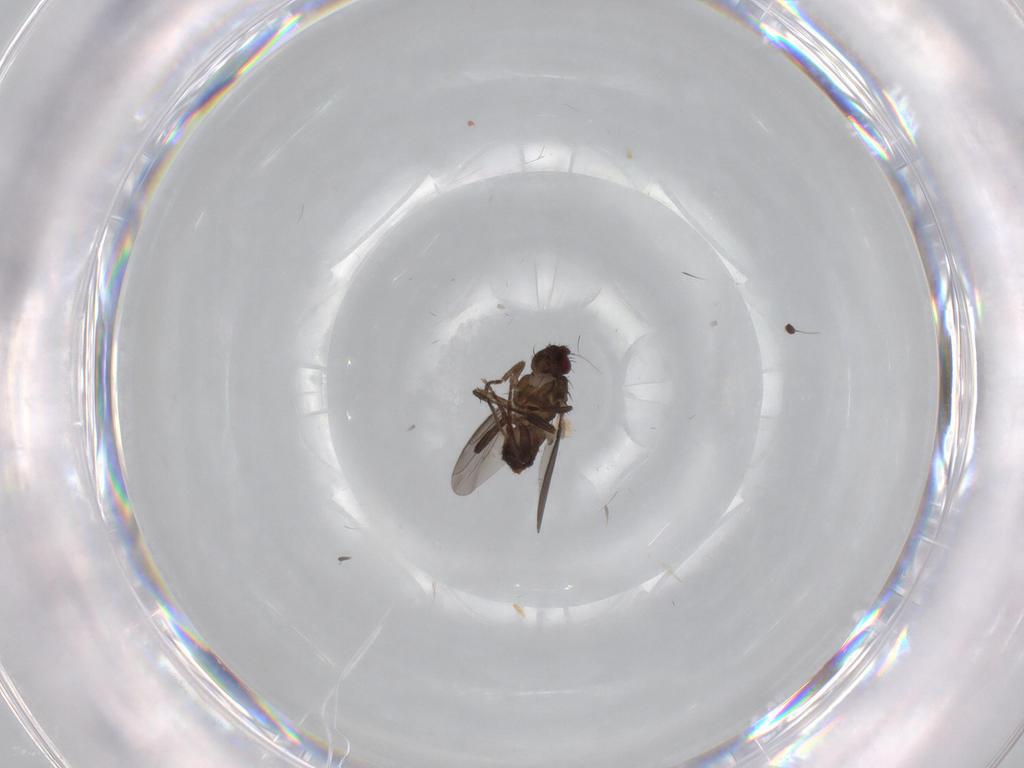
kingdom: Animalia
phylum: Arthropoda
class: Insecta
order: Diptera
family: Sphaeroceridae
